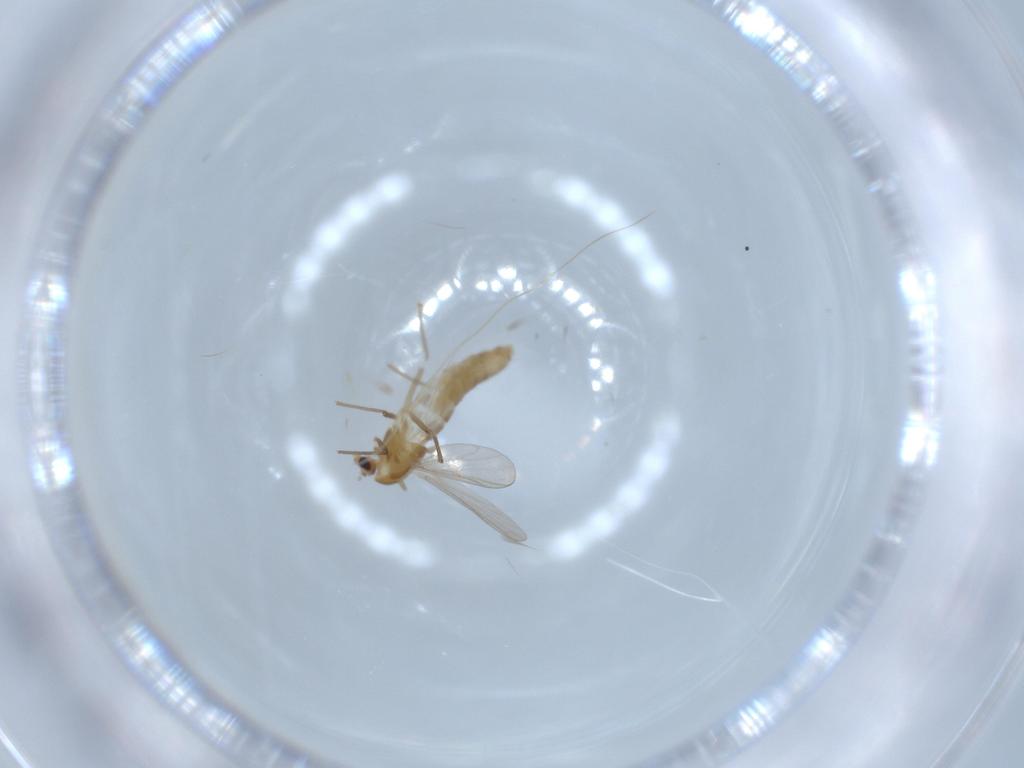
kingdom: Animalia
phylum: Arthropoda
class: Insecta
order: Diptera
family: Chironomidae
